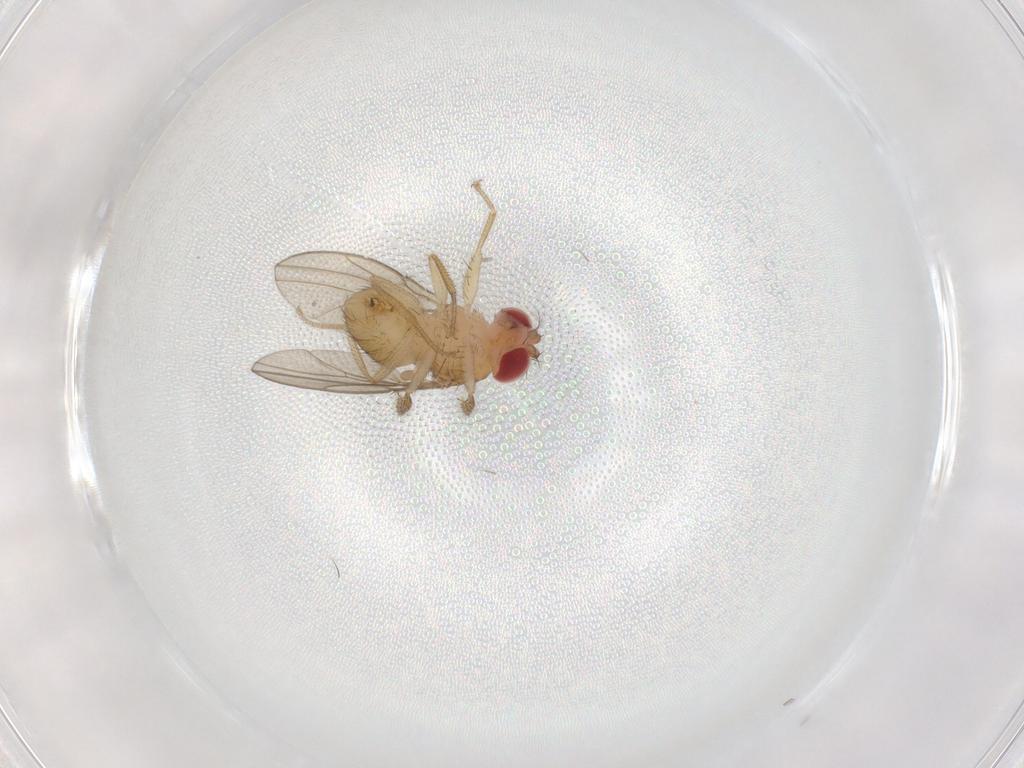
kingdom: Animalia
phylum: Arthropoda
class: Insecta
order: Diptera
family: Drosophilidae
